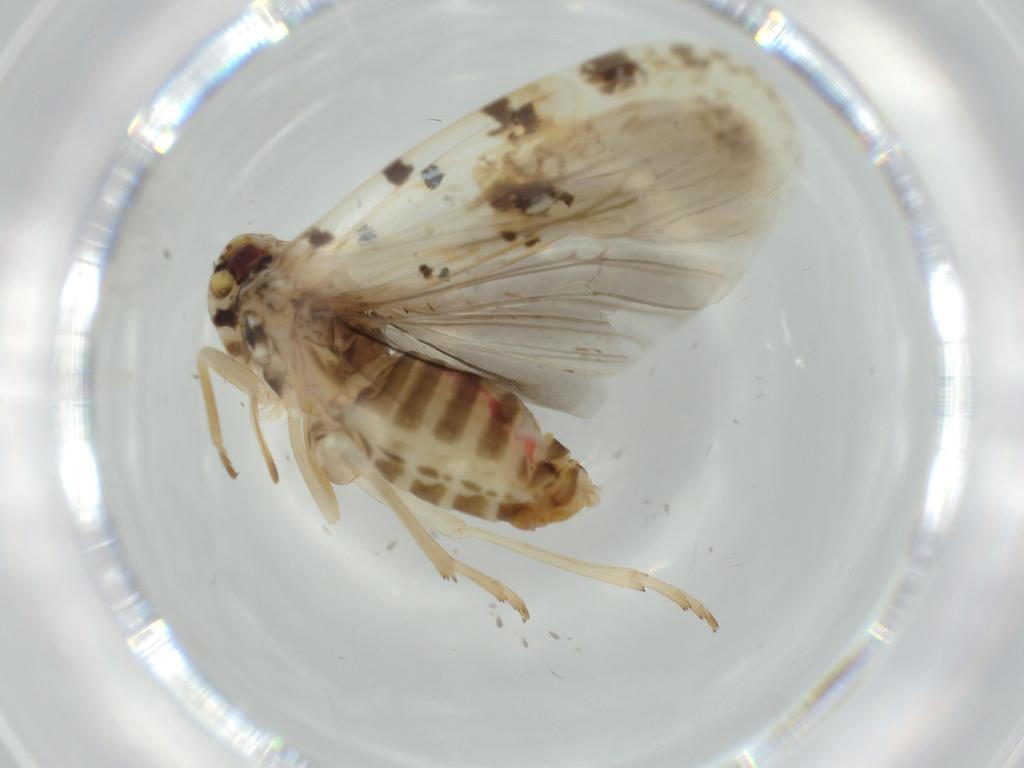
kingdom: Animalia
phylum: Arthropoda
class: Insecta
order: Hemiptera
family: Achilidae
